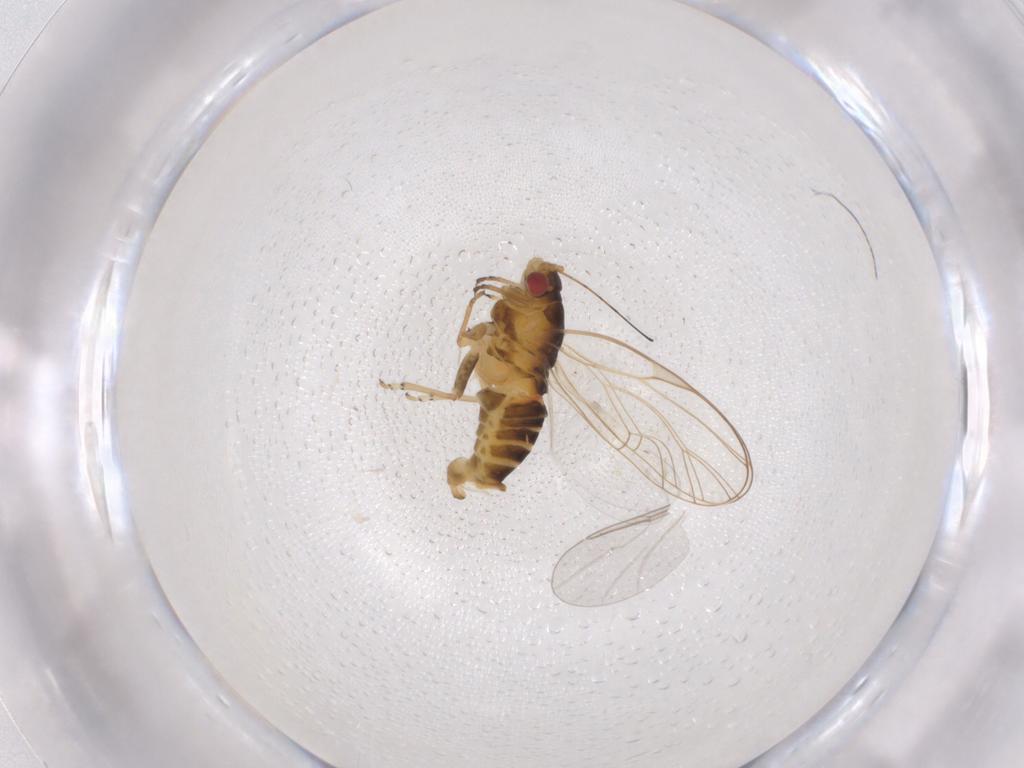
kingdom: Animalia
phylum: Arthropoda
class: Insecta
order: Hemiptera
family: Psyllidae
